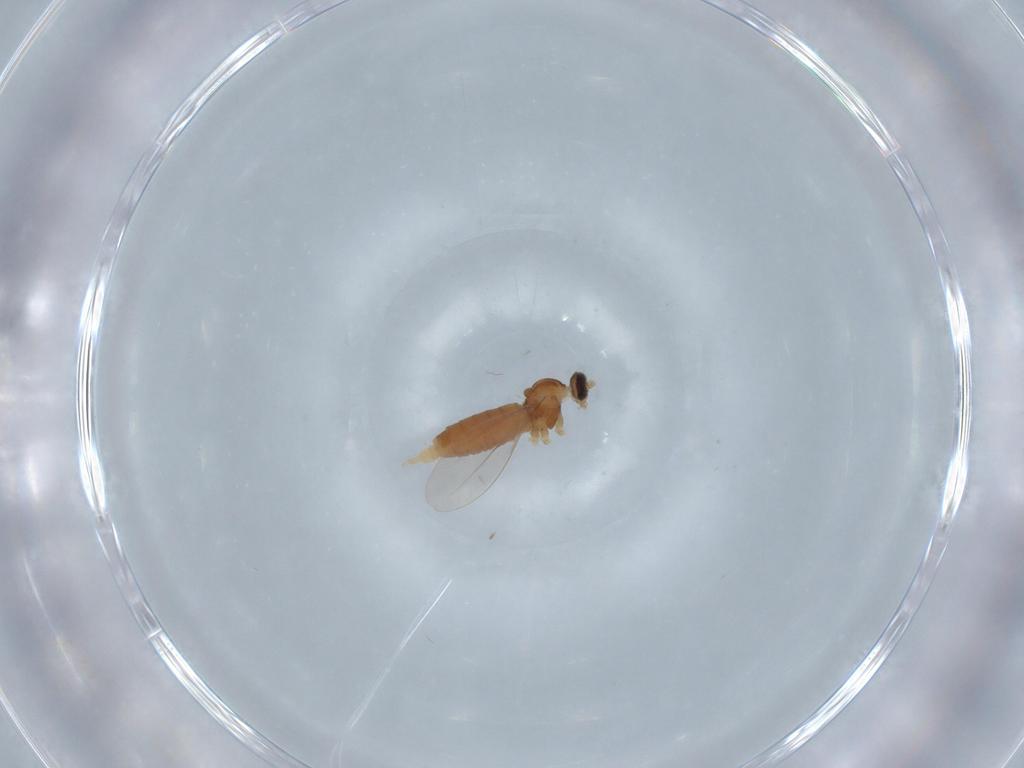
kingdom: Animalia
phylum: Arthropoda
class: Insecta
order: Diptera
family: Cecidomyiidae
